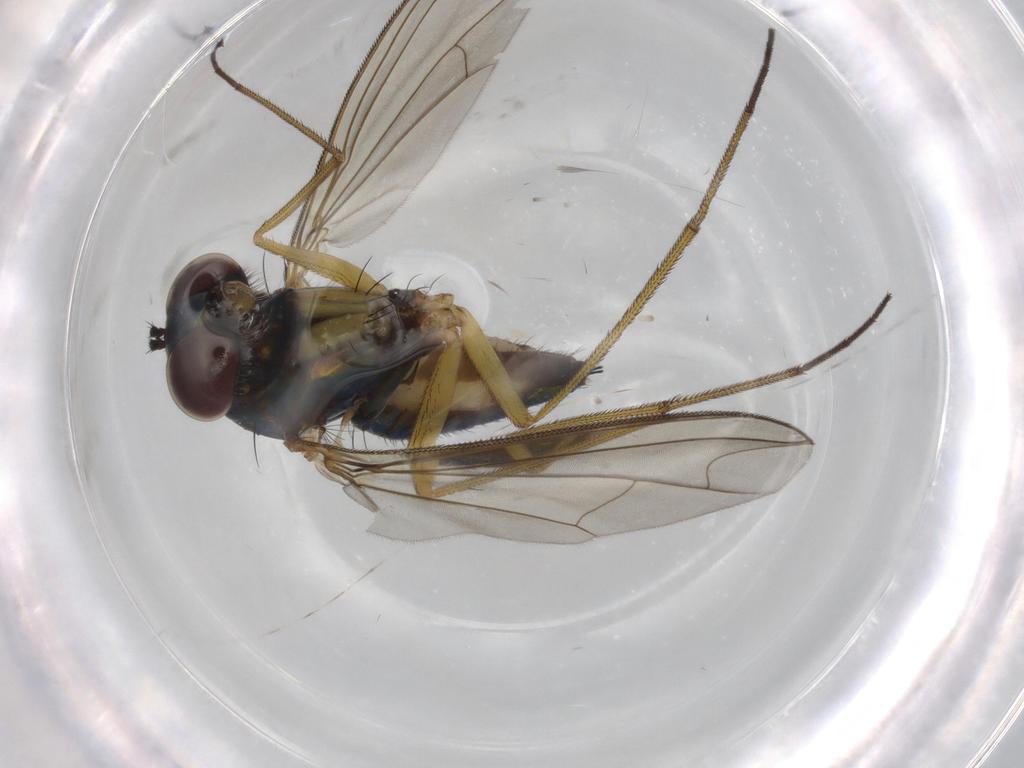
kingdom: Animalia
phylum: Arthropoda
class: Insecta
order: Diptera
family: Dolichopodidae
